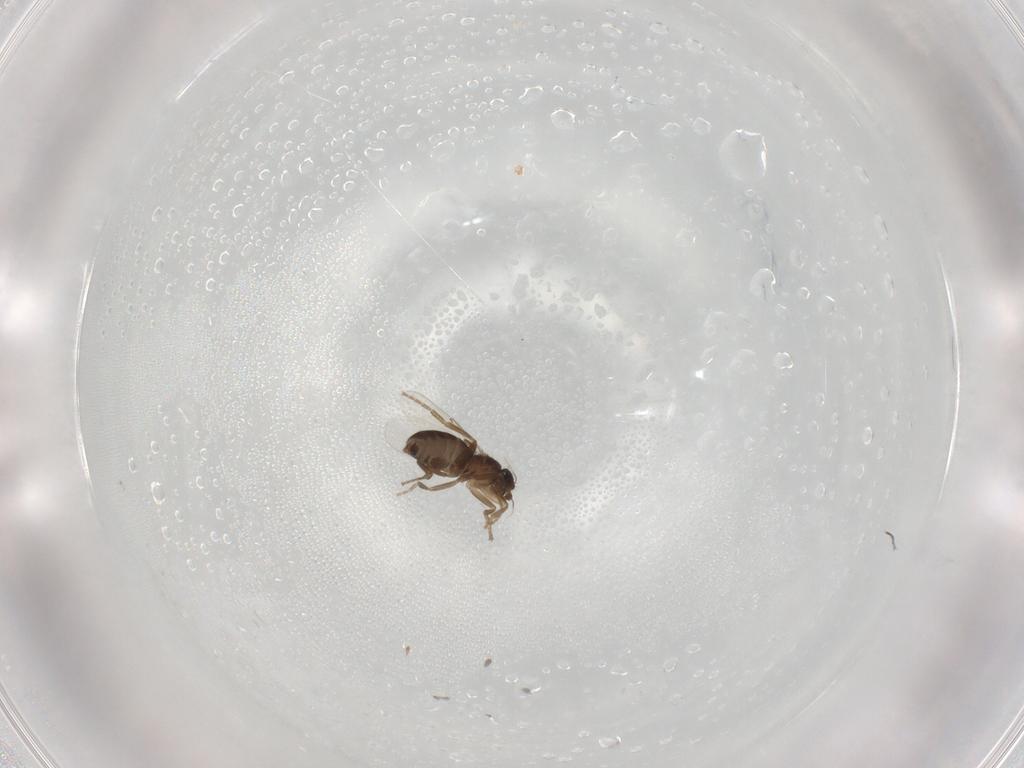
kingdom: Animalia
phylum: Arthropoda
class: Insecta
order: Diptera
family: Phoridae
